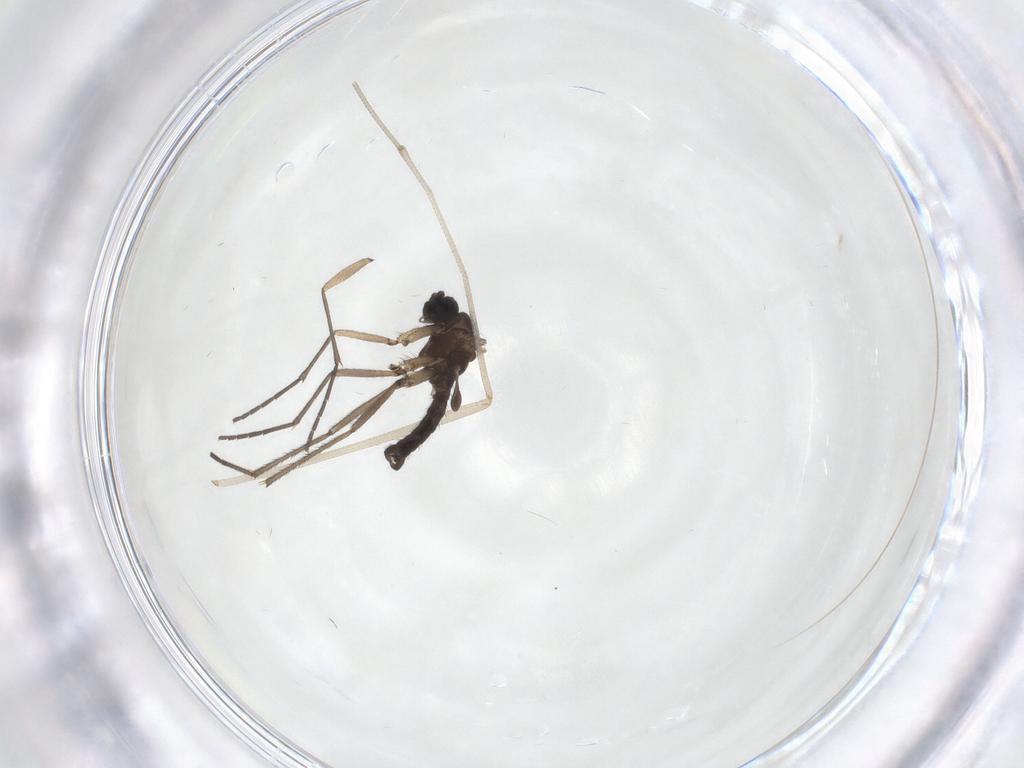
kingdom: Animalia
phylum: Arthropoda
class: Insecta
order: Diptera
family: Sciaridae
